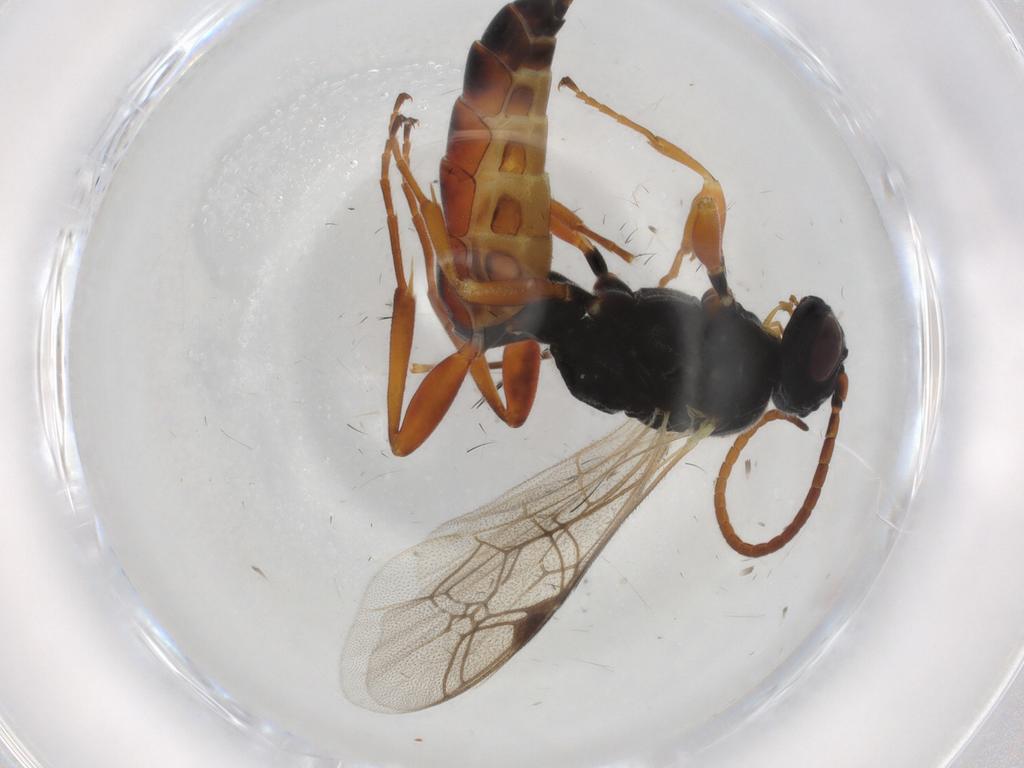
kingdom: Animalia
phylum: Arthropoda
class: Insecta
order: Hymenoptera
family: Ichneumonidae
